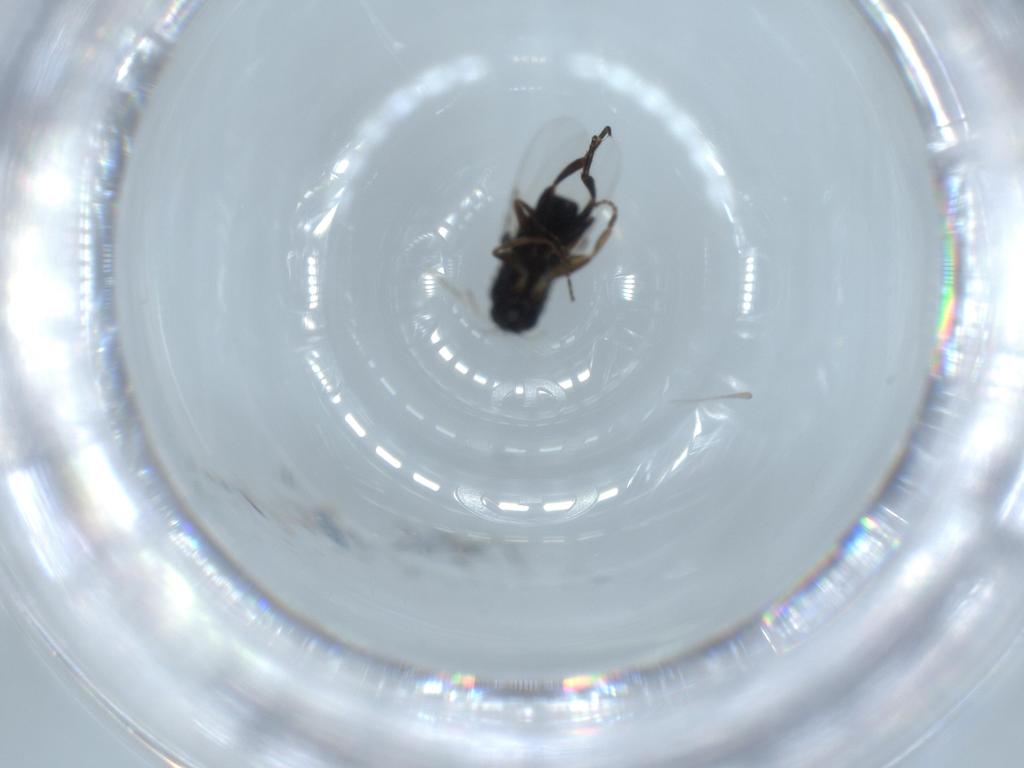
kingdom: Animalia
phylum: Arthropoda
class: Insecta
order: Diptera
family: Phoridae
